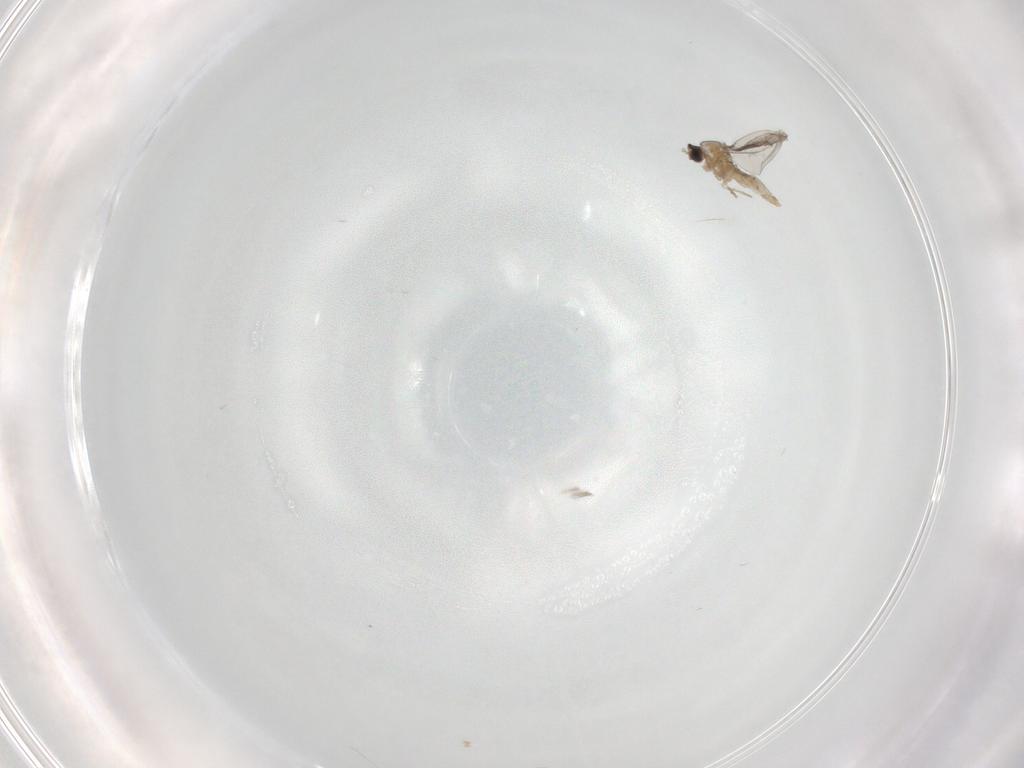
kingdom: Animalia
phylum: Arthropoda
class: Insecta
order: Diptera
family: Cecidomyiidae
